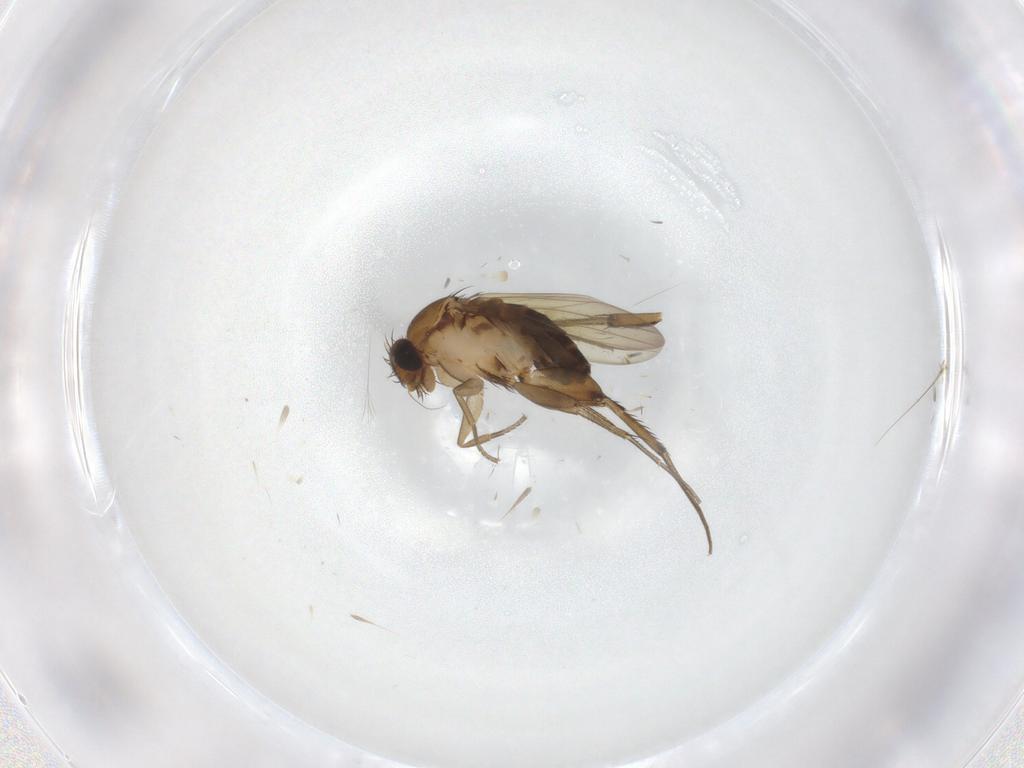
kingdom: Animalia
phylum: Arthropoda
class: Insecta
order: Diptera
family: Phoridae
